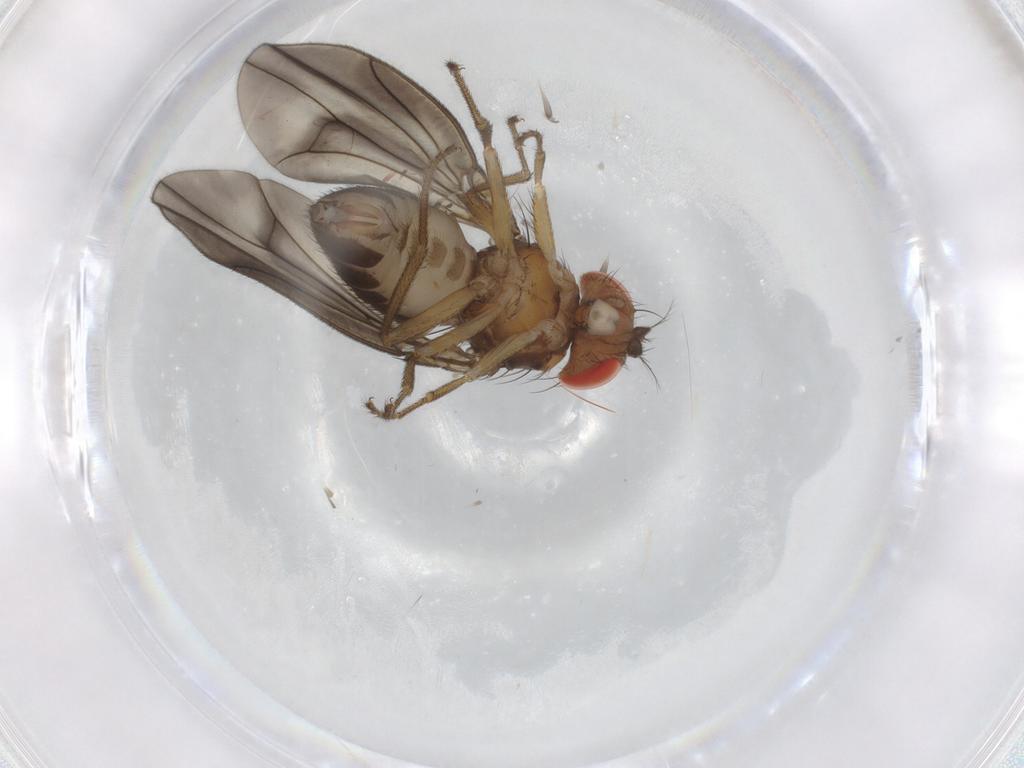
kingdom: Animalia
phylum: Arthropoda
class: Insecta
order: Diptera
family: Drosophilidae
